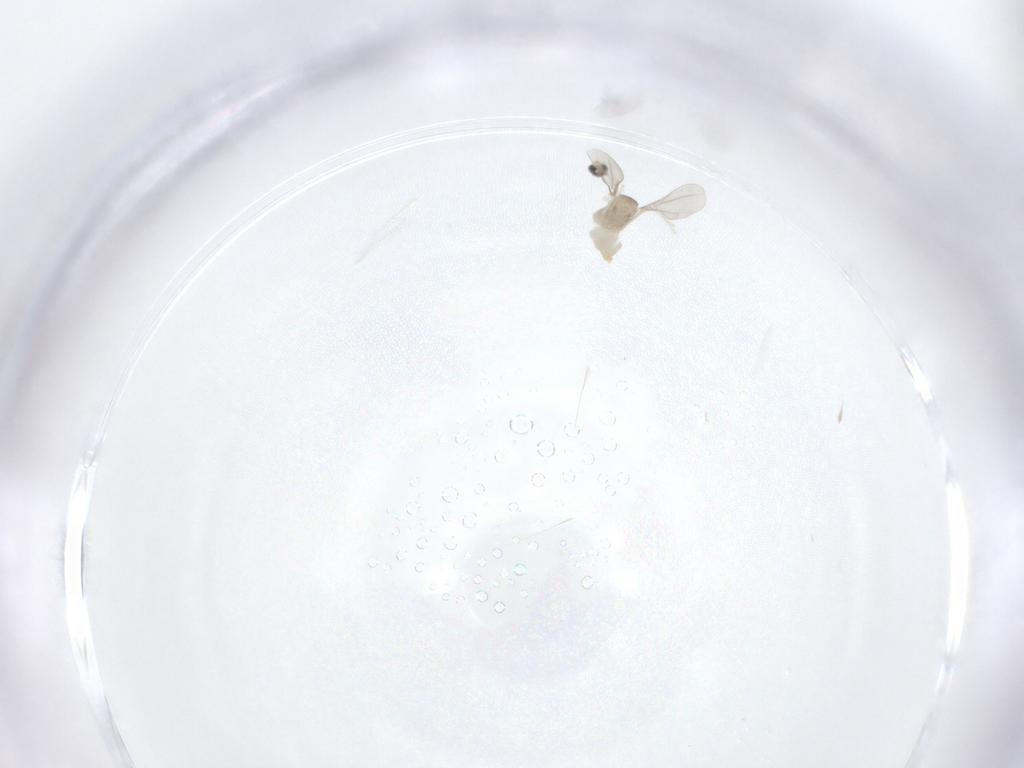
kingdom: Animalia
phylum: Arthropoda
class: Insecta
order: Diptera
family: Cecidomyiidae
